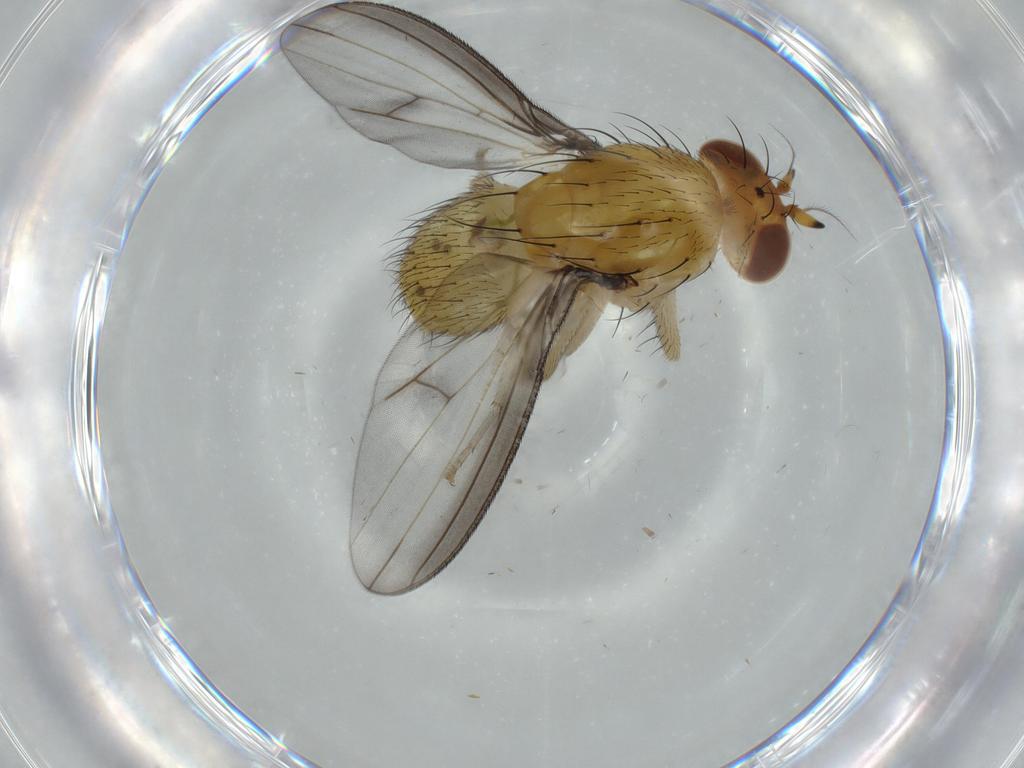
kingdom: Animalia
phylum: Arthropoda
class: Insecta
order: Diptera
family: Lauxaniidae
